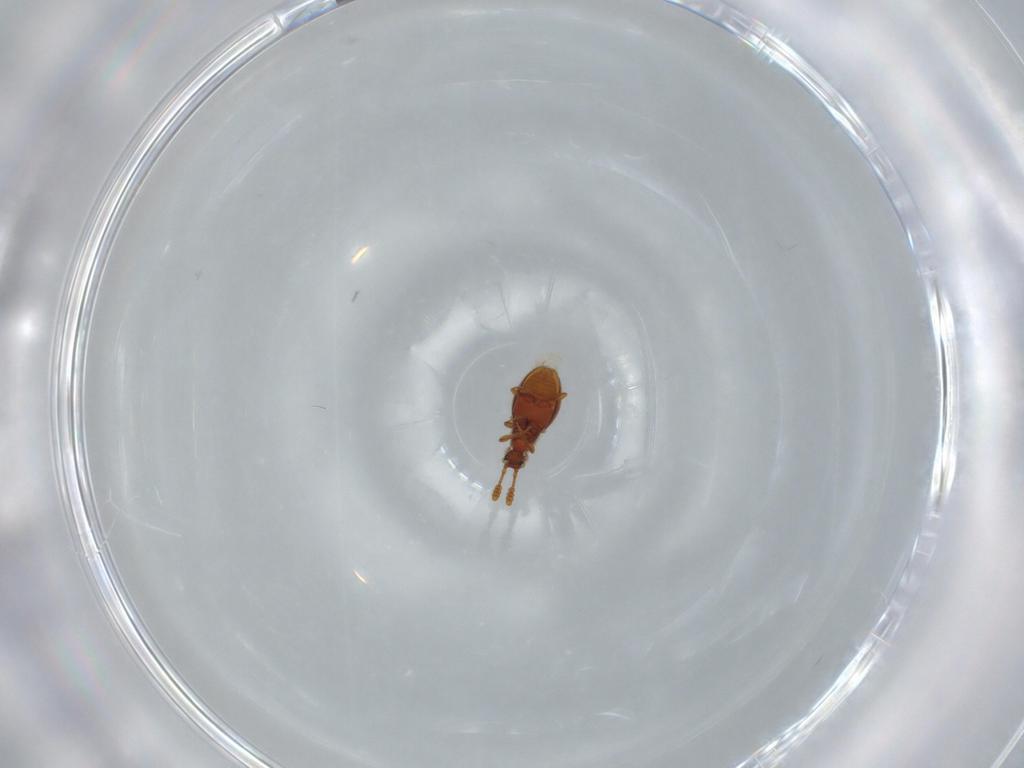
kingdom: Animalia
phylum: Arthropoda
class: Insecta
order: Coleoptera
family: Staphylinidae
